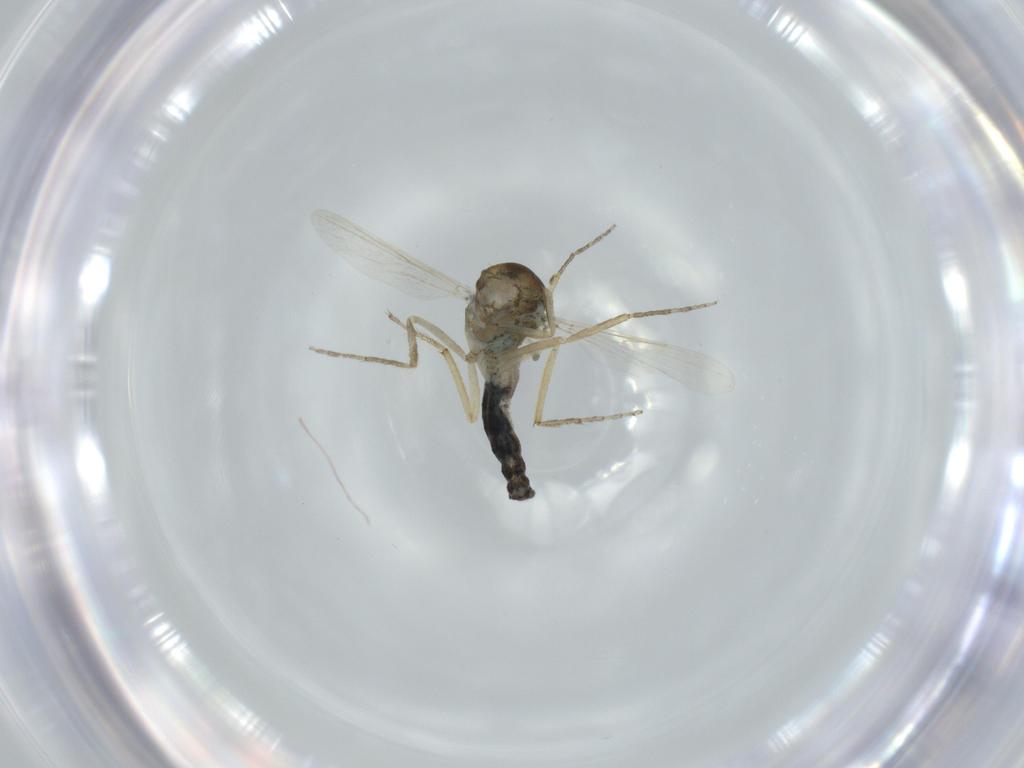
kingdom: Animalia
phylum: Arthropoda
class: Insecta
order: Diptera
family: Ceratopogonidae
